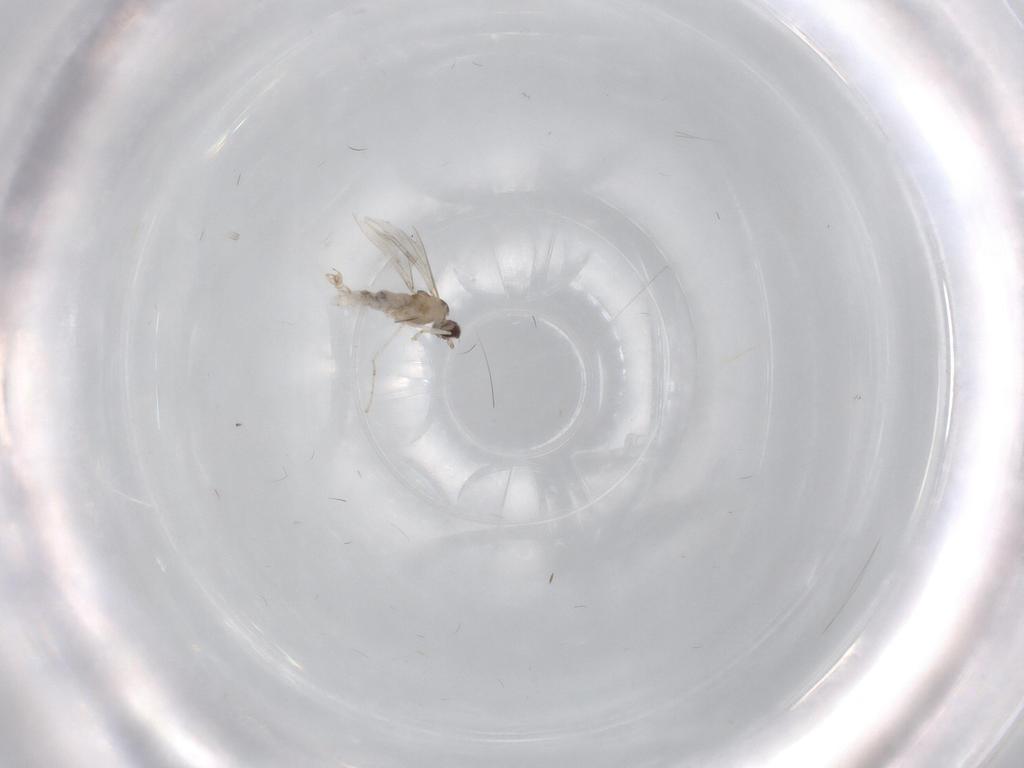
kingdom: Animalia
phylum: Arthropoda
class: Insecta
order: Diptera
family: Cecidomyiidae
